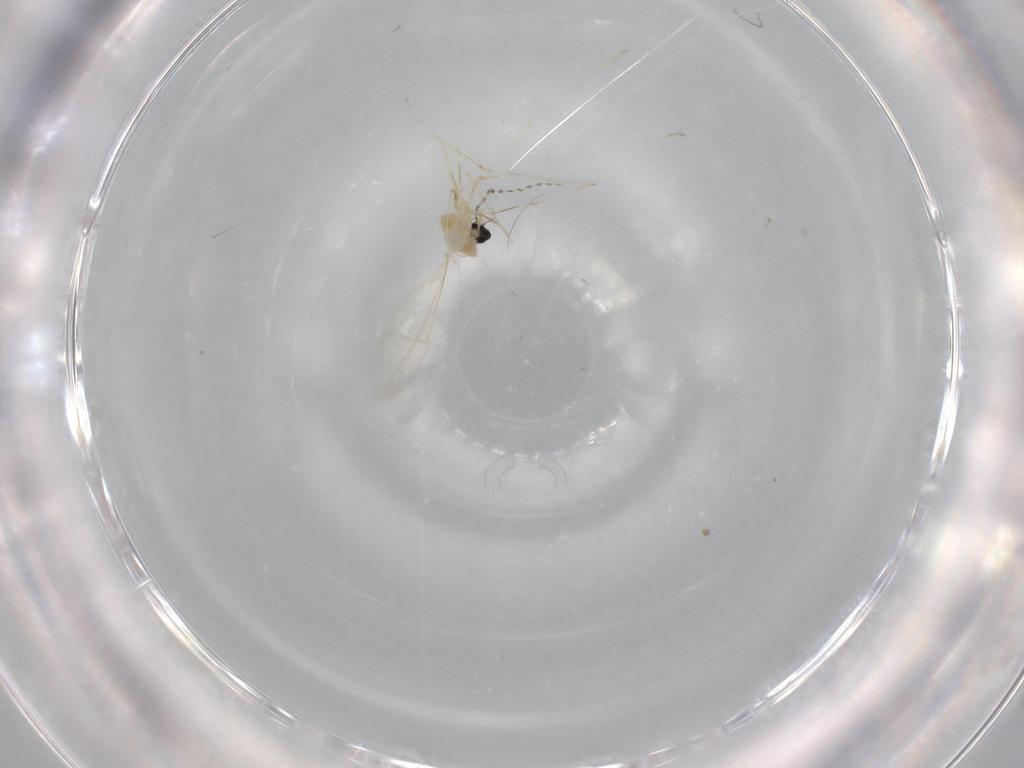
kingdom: Animalia
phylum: Arthropoda
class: Insecta
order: Diptera
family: Cecidomyiidae
